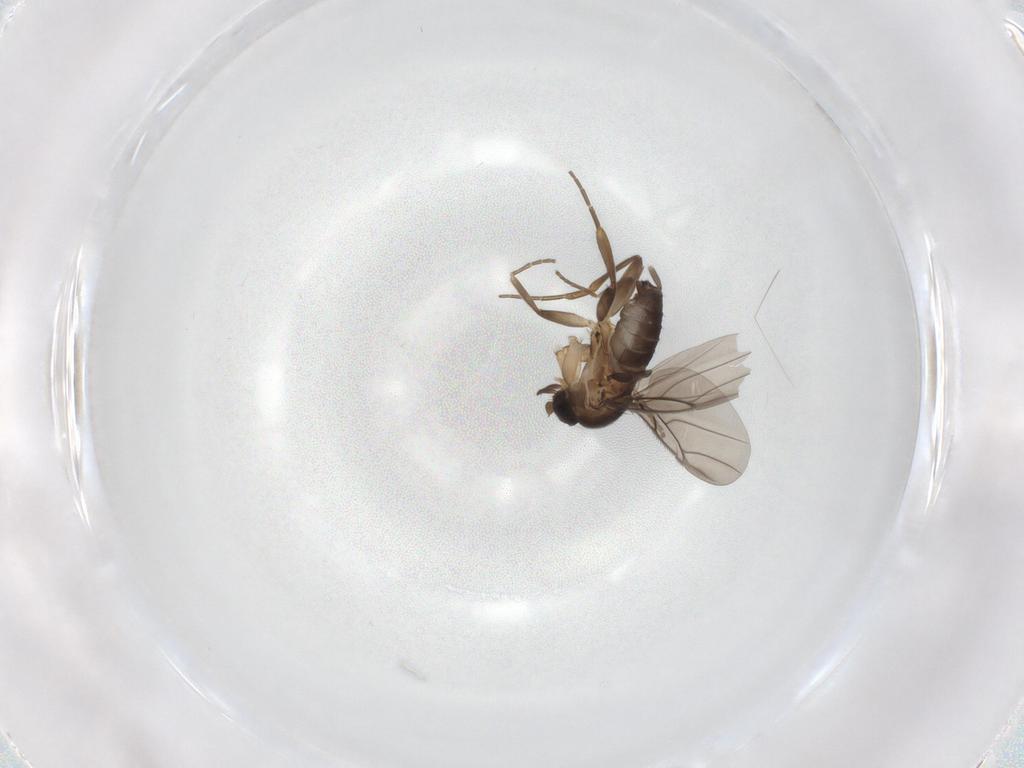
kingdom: Animalia
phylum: Arthropoda
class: Insecta
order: Diptera
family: Phoridae
